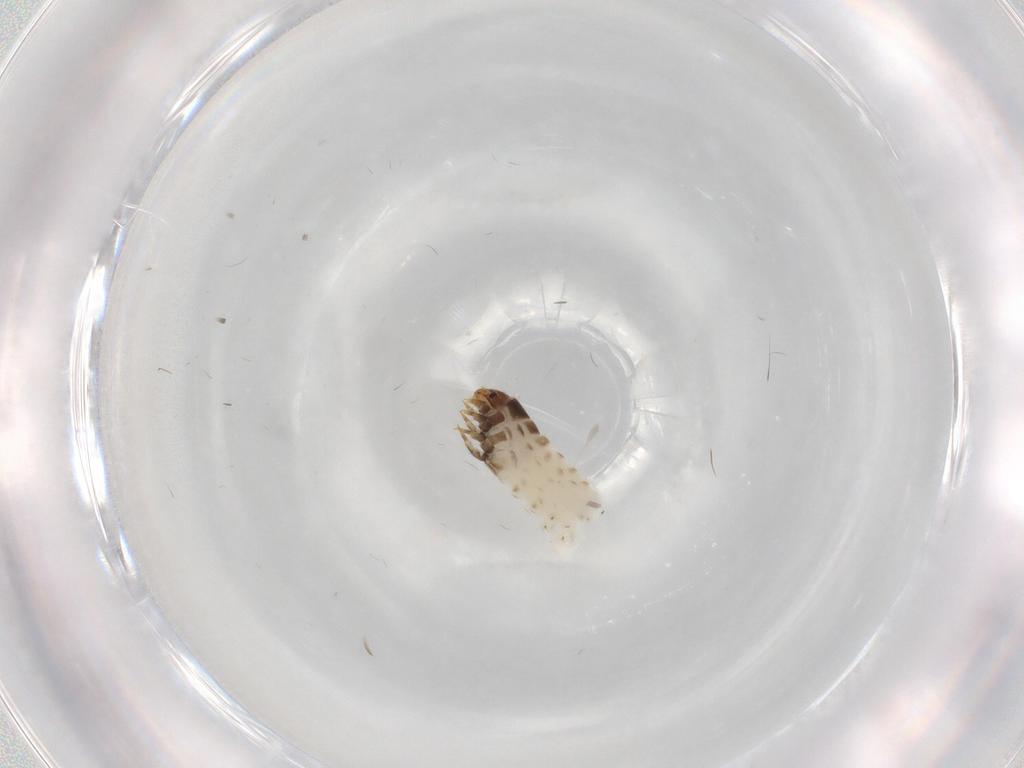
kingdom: Animalia
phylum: Arthropoda
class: Insecta
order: Lepidoptera
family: Psychidae
